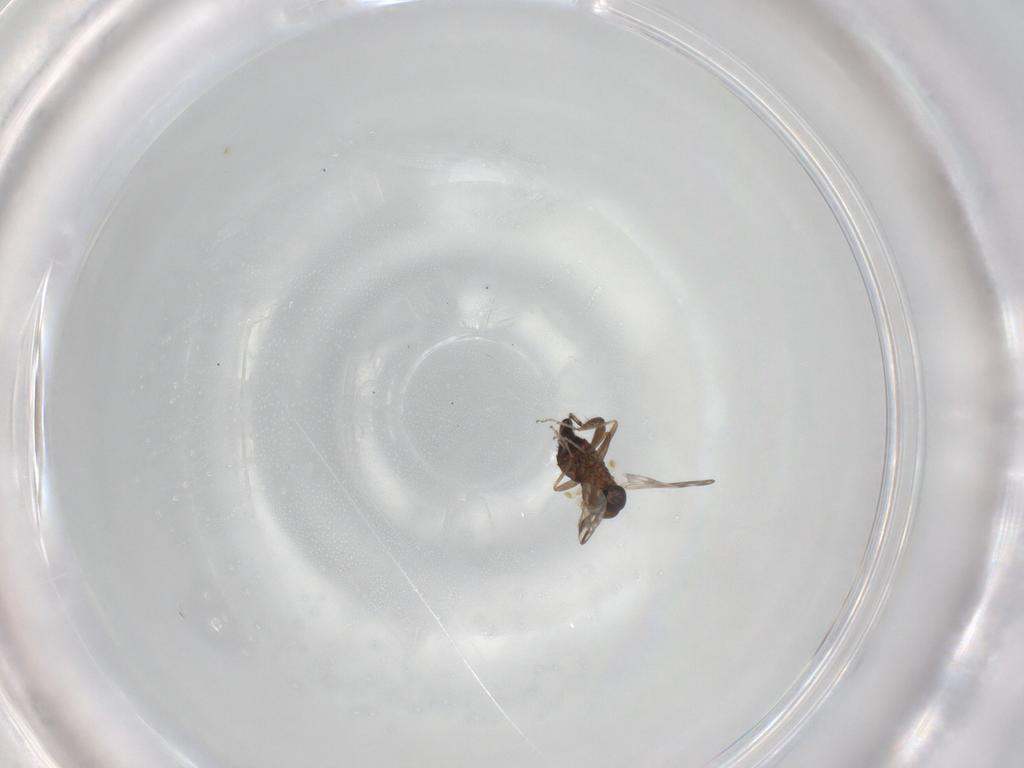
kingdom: Animalia
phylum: Arthropoda
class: Insecta
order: Diptera
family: Ceratopogonidae
